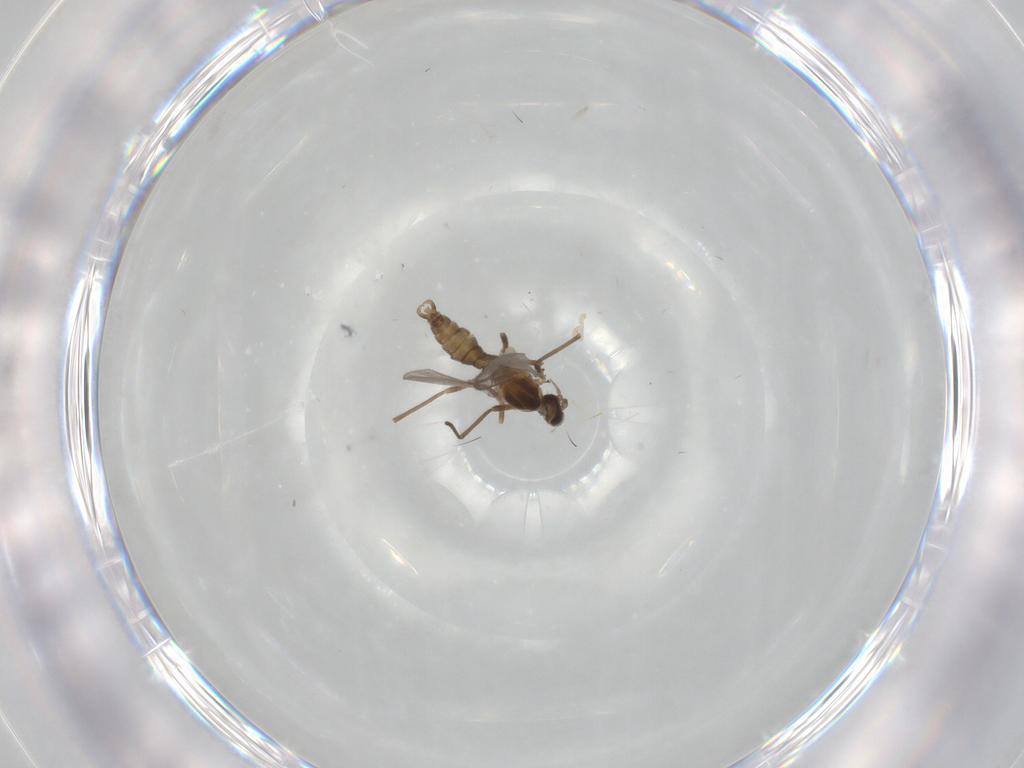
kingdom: Animalia
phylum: Arthropoda
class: Insecta
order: Diptera
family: Cecidomyiidae
